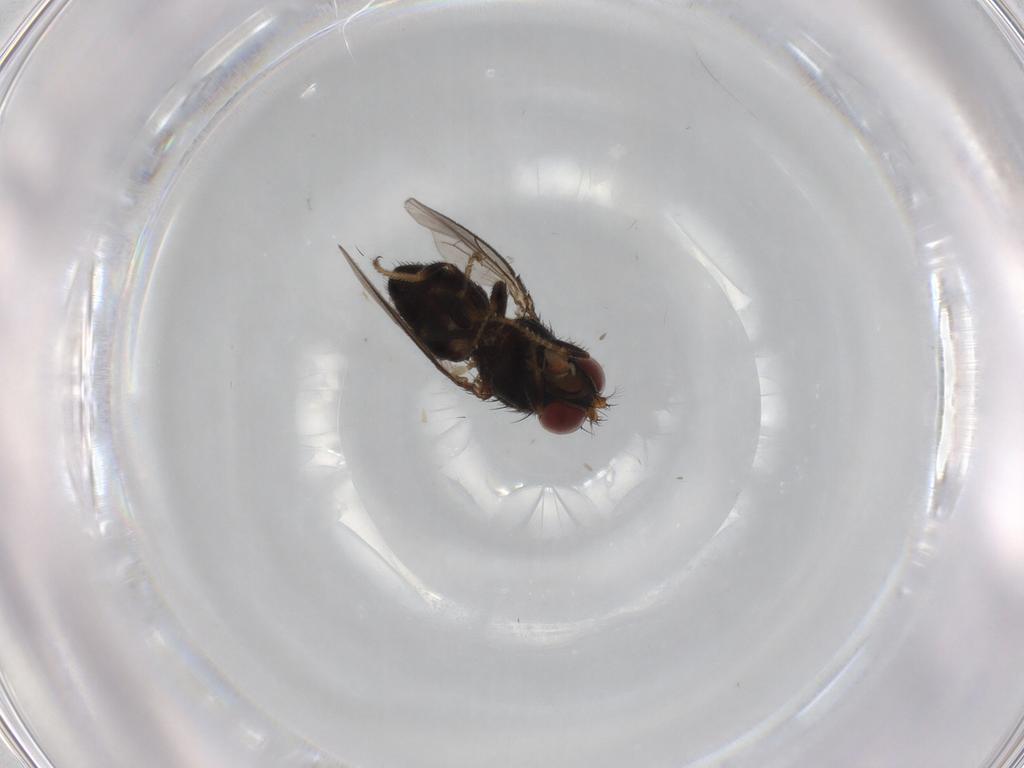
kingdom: Animalia
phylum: Arthropoda
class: Insecta
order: Diptera
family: Ephydridae
